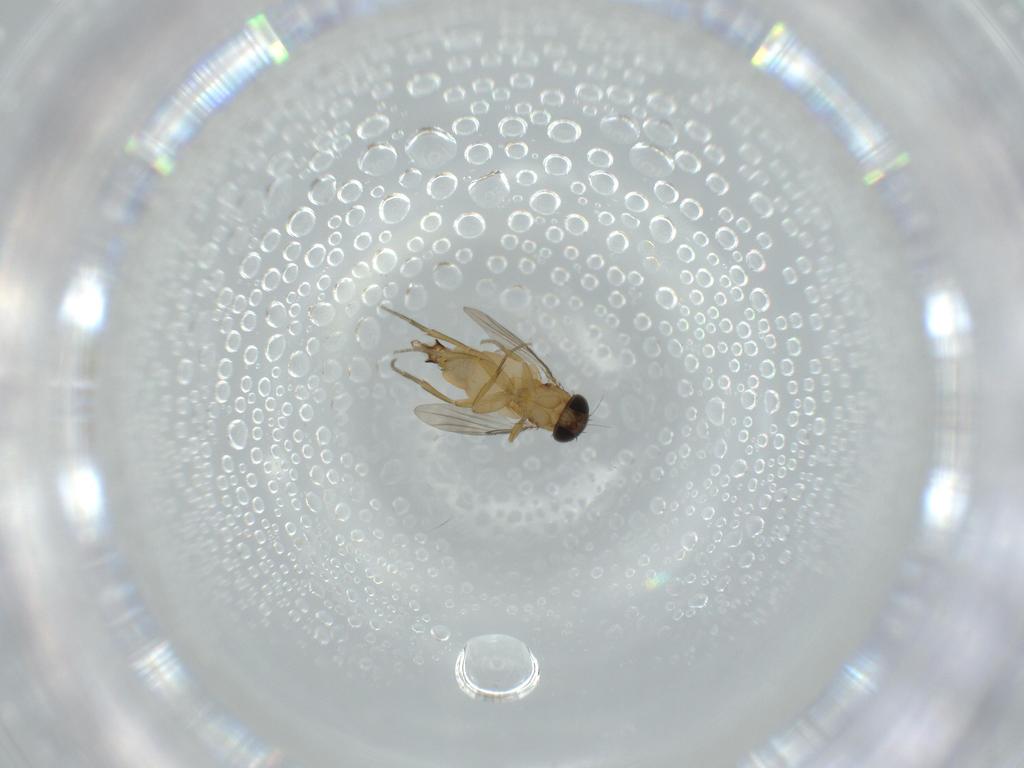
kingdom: Animalia
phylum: Arthropoda
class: Insecta
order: Diptera
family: Phoridae
